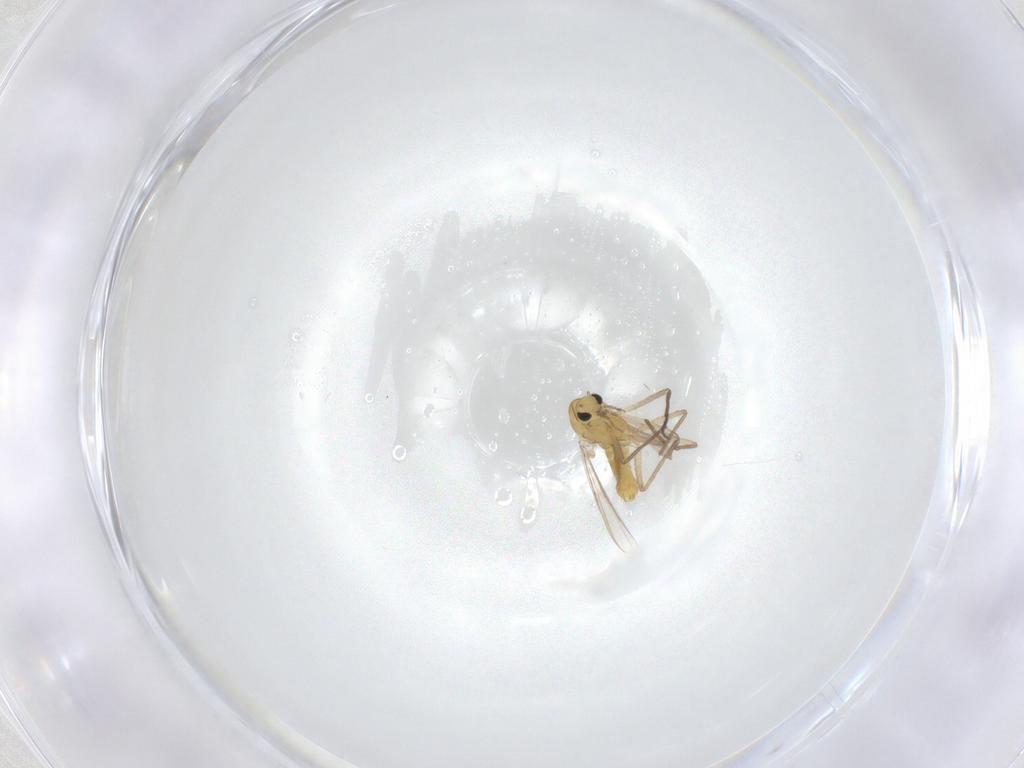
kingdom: Animalia
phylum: Arthropoda
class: Insecta
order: Diptera
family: Chironomidae
